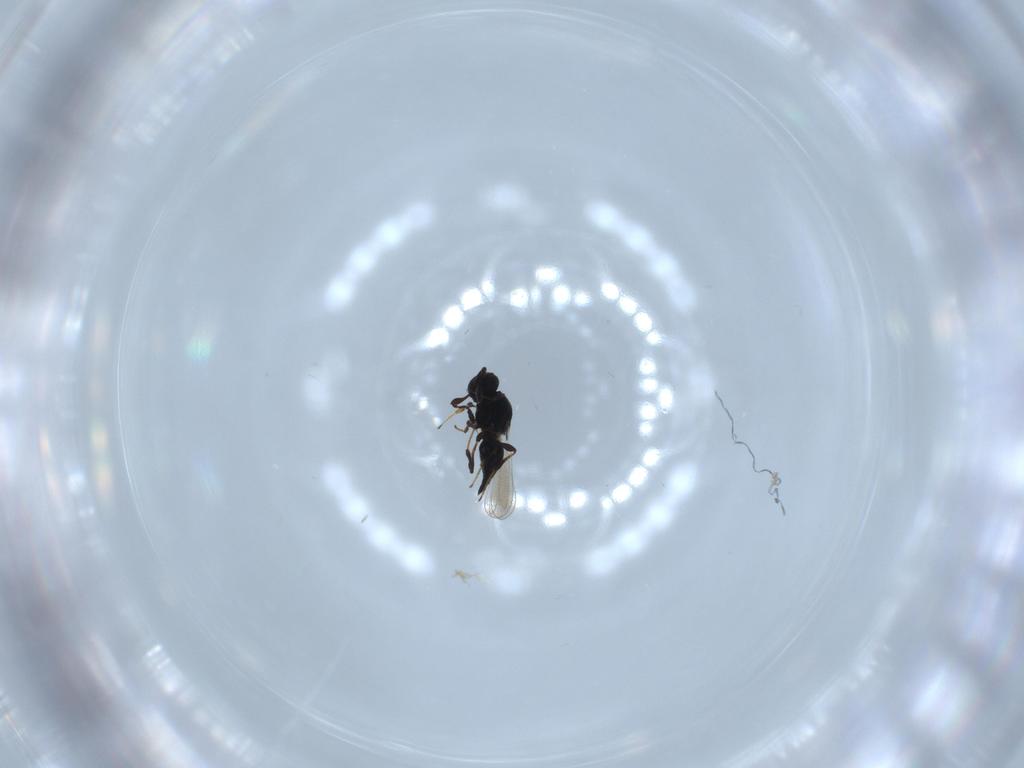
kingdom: Animalia
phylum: Arthropoda
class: Insecta
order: Hymenoptera
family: Platygastridae
